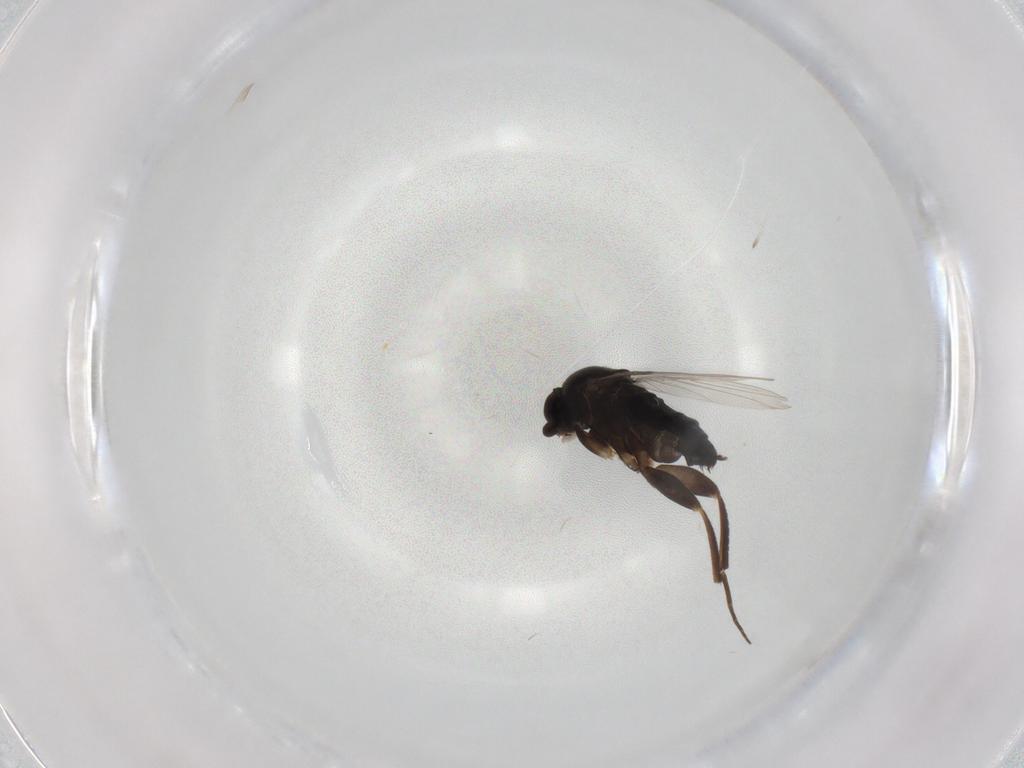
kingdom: Animalia
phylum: Arthropoda
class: Insecta
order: Diptera
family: Phoridae
